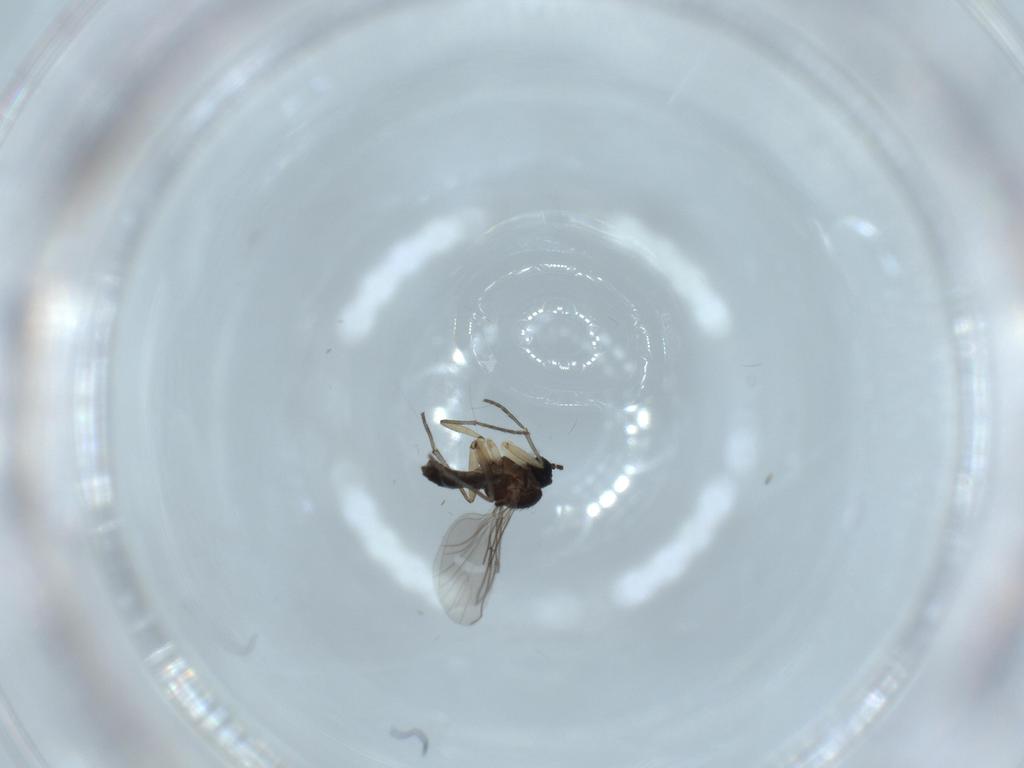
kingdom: Animalia
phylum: Arthropoda
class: Insecta
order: Diptera
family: Sciaridae
